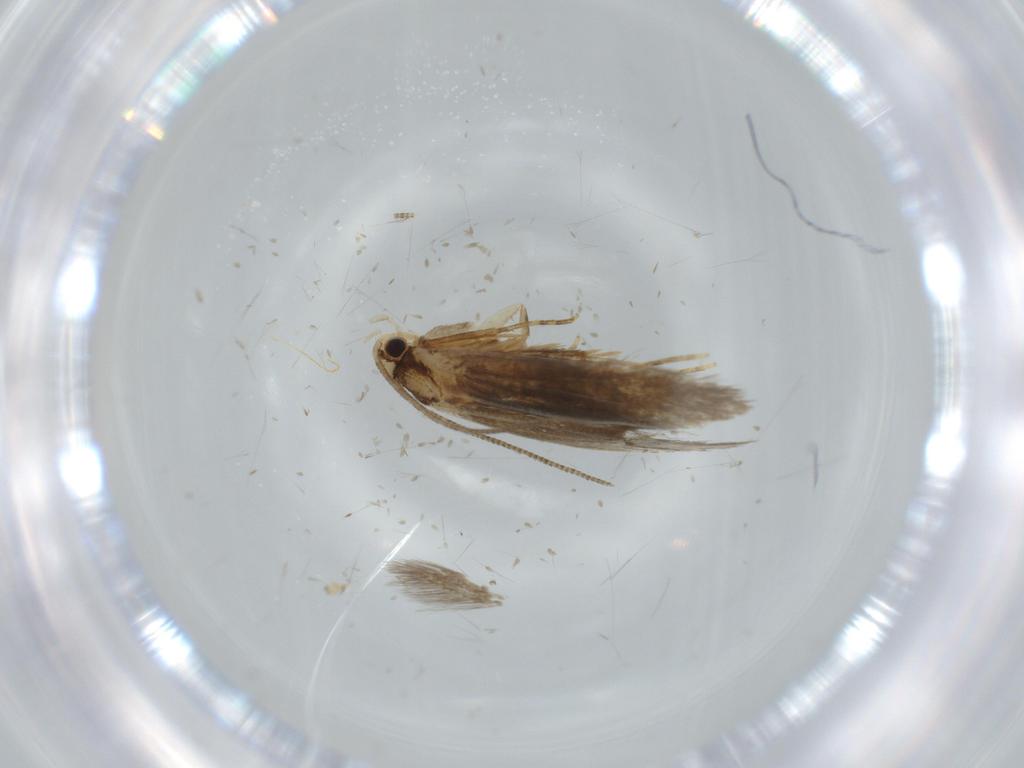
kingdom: Animalia
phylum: Arthropoda
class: Insecta
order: Lepidoptera
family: Tineidae
